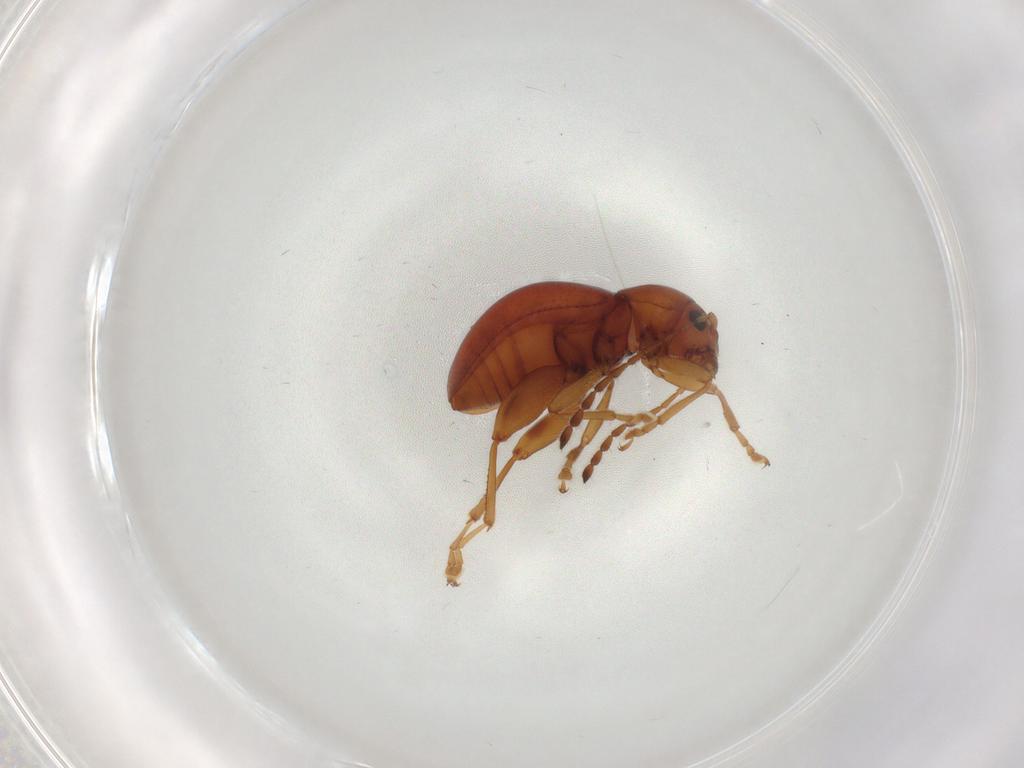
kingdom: Animalia
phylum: Arthropoda
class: Insecta
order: Coleoptera
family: Chrysomelidae
